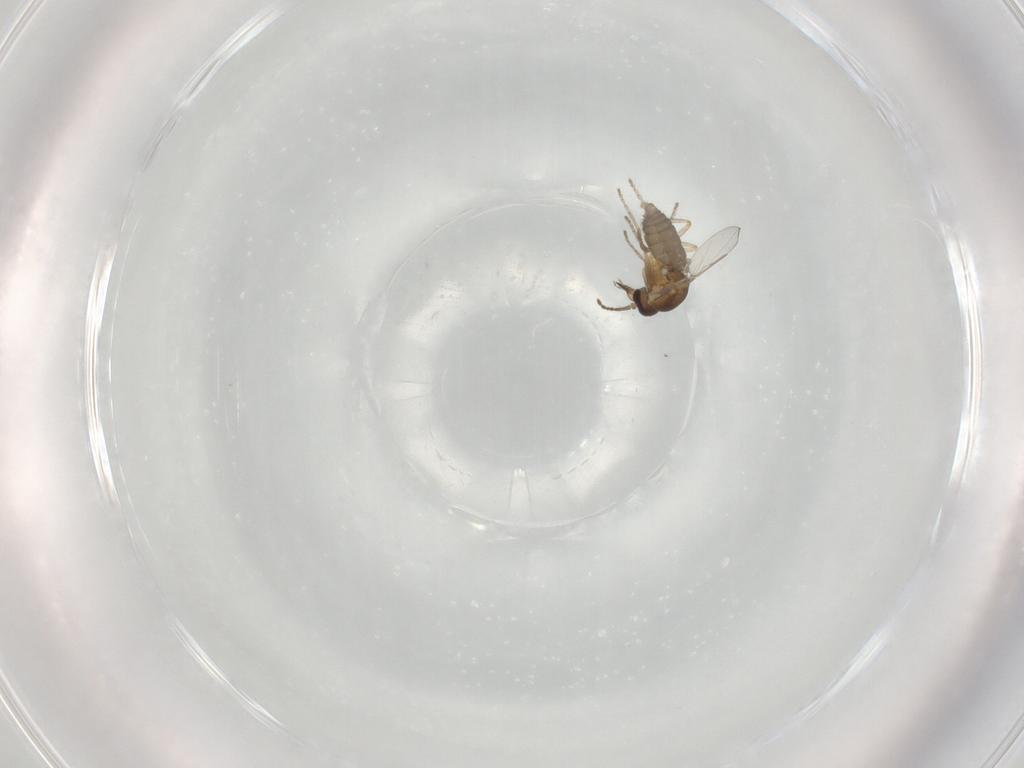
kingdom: Animalia
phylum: Arthropoda
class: Insecta
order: Diptera
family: Ceratopogonidae
